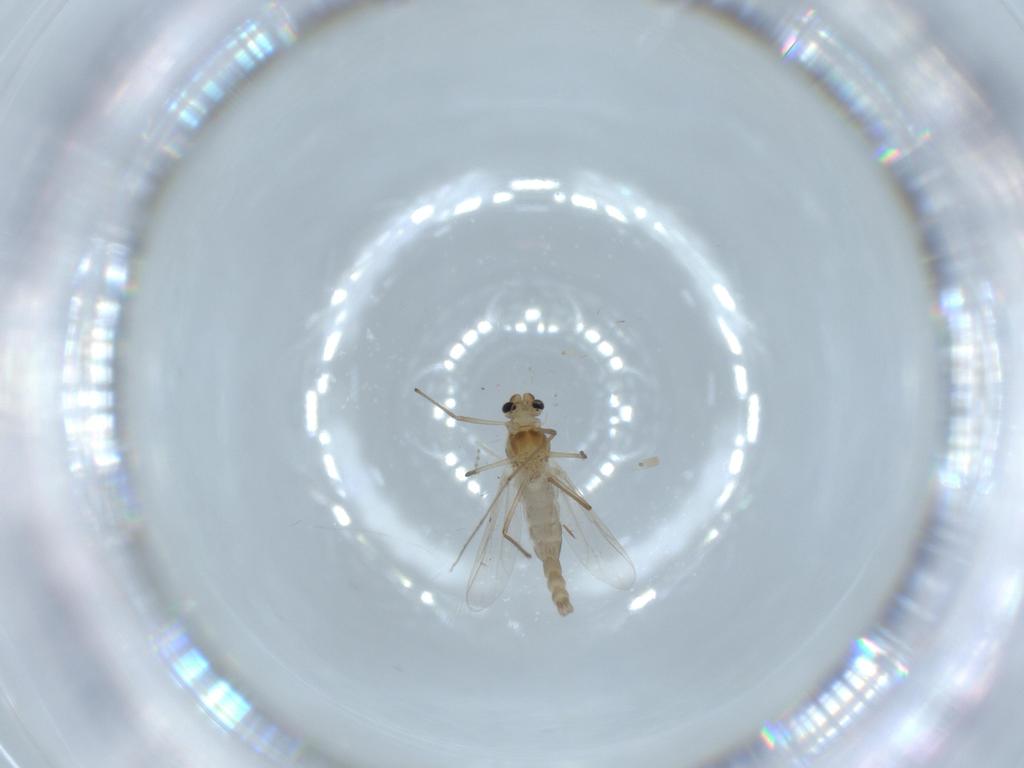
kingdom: Animalia
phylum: Arthropoda
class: Insecta
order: Diptera
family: Chironomidae
